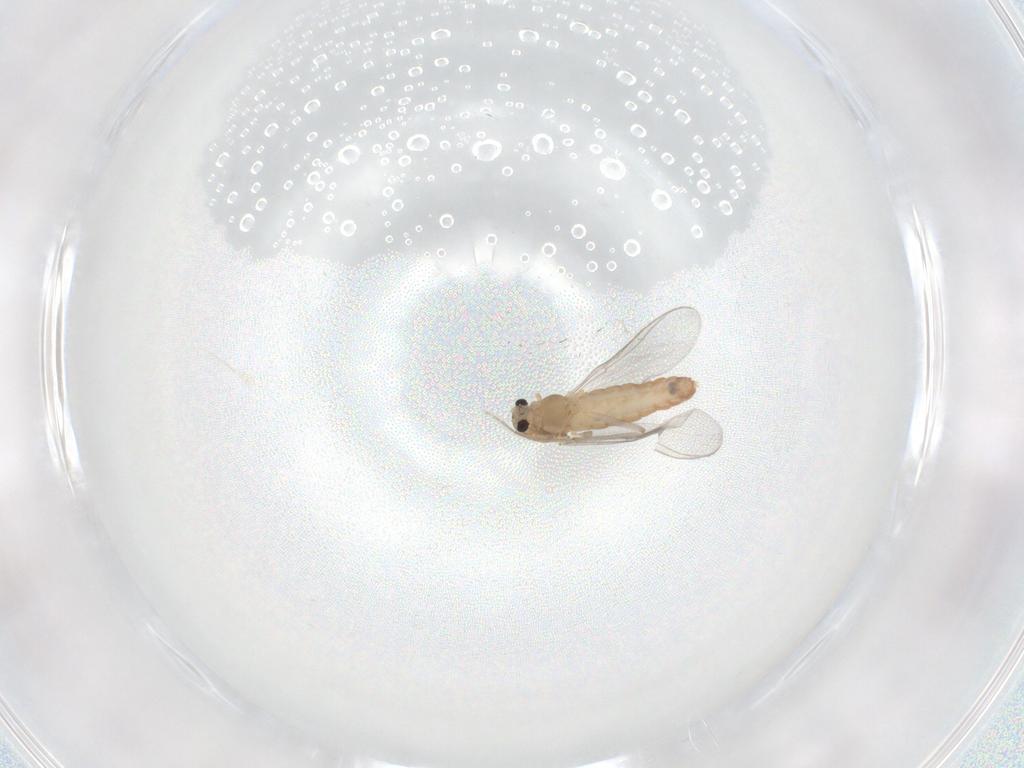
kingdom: Animalia
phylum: Arthropoda
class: Insecta
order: Diptera
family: Chironomidae
